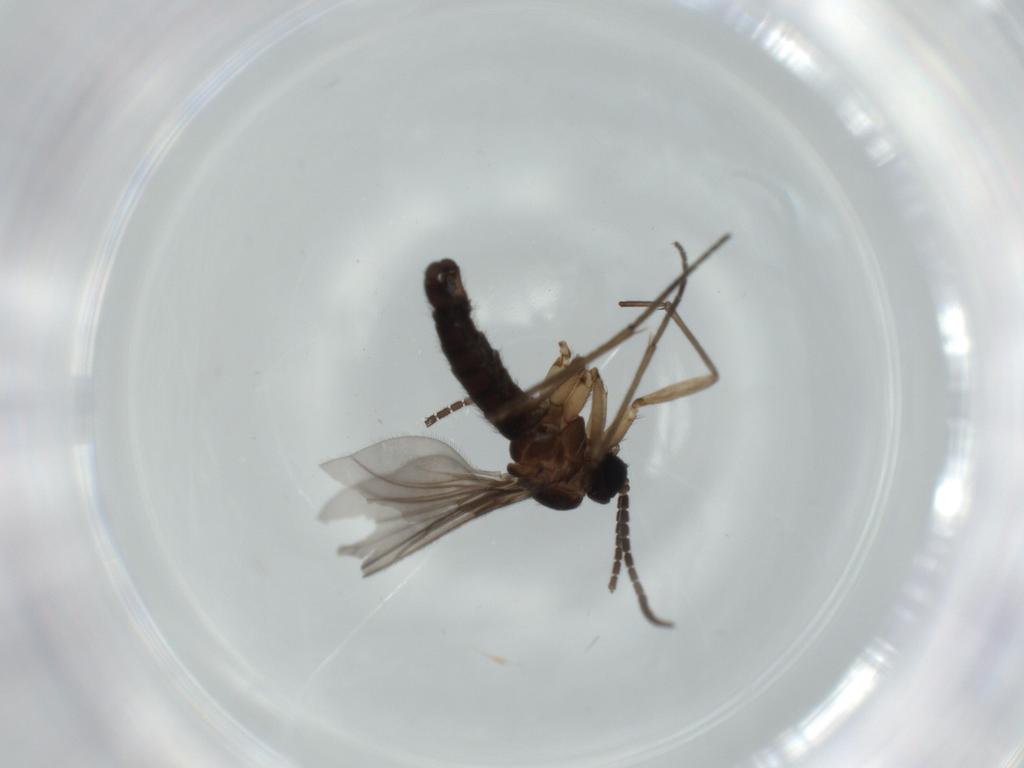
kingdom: Animalia
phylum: Arthropoda
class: Insecta
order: Diptera
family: Sciaridae
